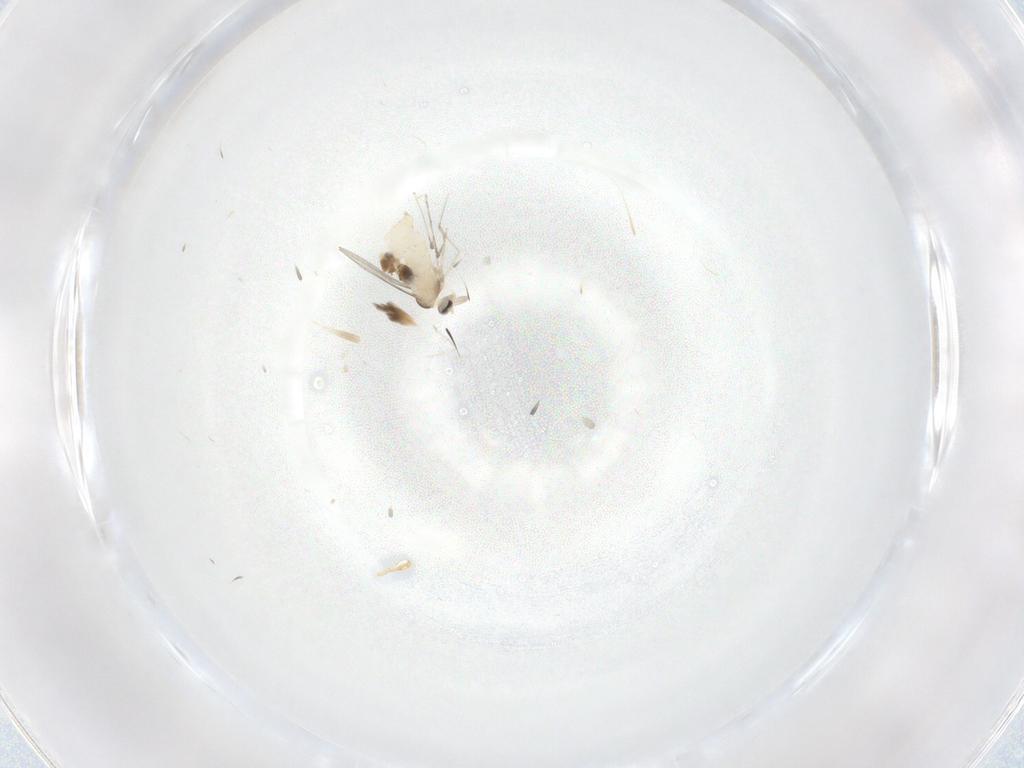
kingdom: Animalia
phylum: Arthropoda
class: Insecta
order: Diptera
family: Cecidomyiidae
